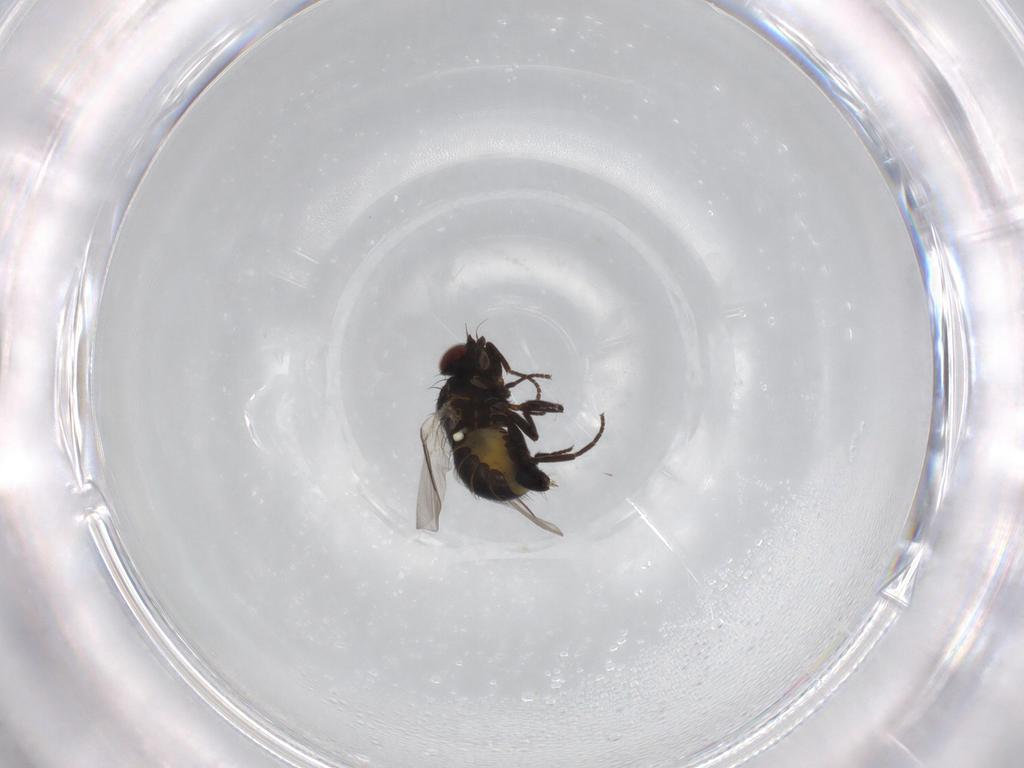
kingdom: Animalia
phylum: Arthropoda
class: Insecta
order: Diptera
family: Agromyzidae
